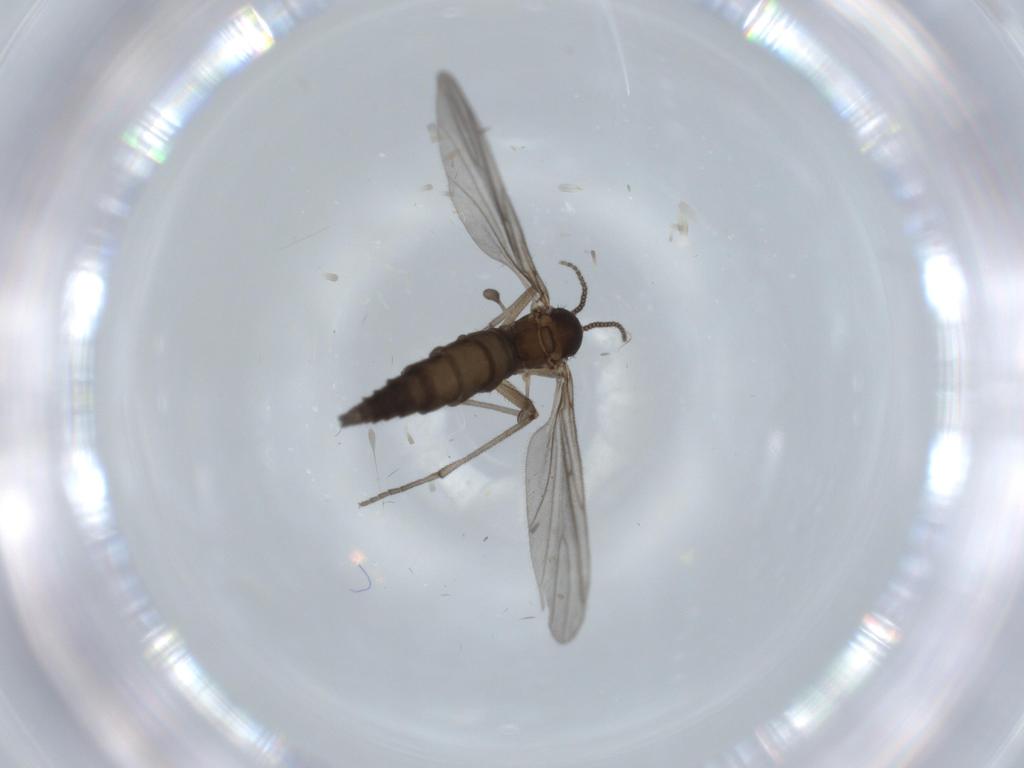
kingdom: Animalia
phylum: Arthropoda
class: Insecta
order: Diptera
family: Sciaridae
